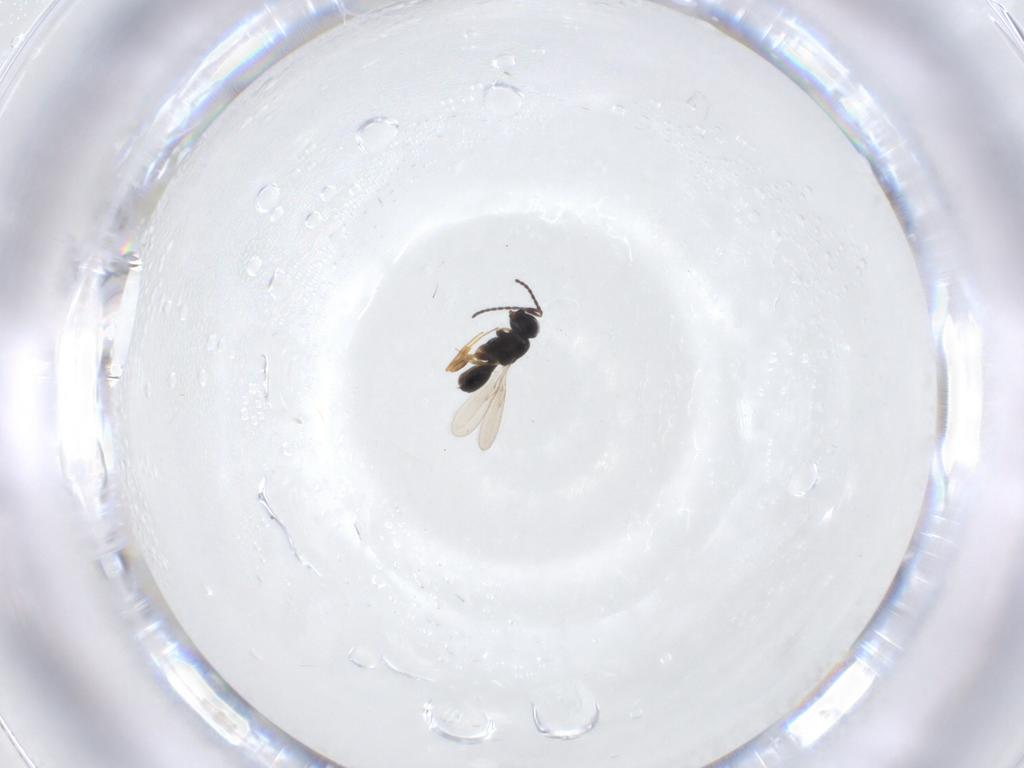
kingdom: Animalia
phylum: Arthropoda
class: Insecta
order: Hymenoptera
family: Scelionidae
